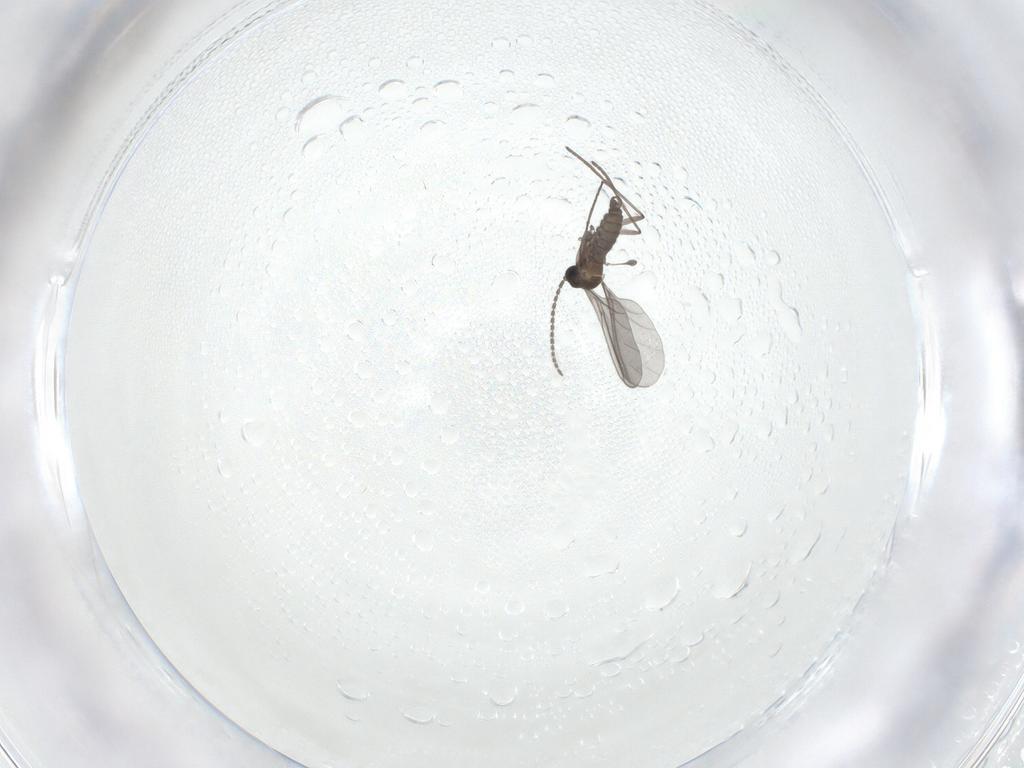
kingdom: Animalia
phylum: Arthropoda
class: Insecta
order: Diptera
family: Sciaridae
